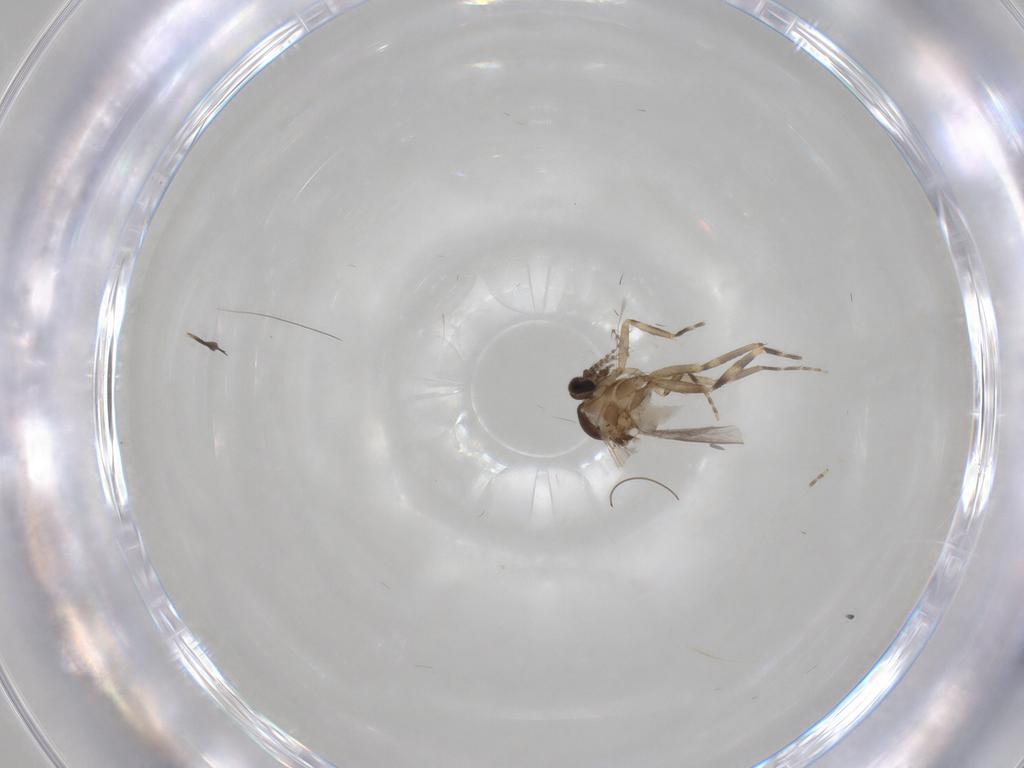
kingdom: Animalia
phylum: Arthropoda
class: Insecta
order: Diptera
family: Ceratopogonidae
